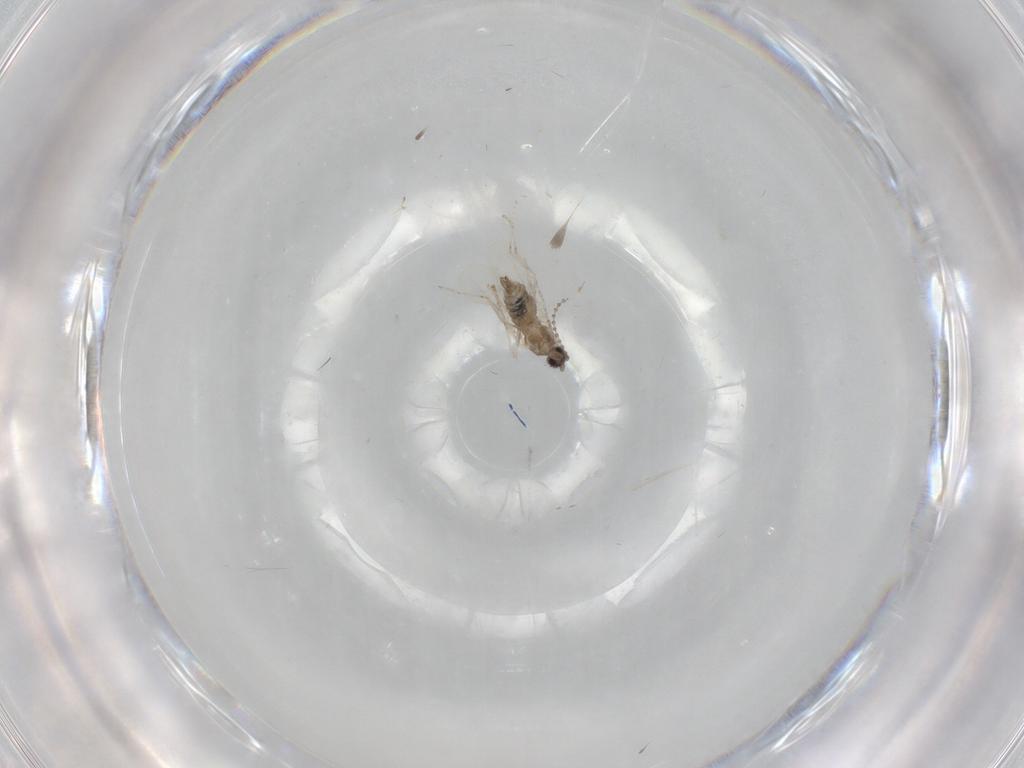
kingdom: Animalia
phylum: Arthropoda
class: Insecta
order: Diptera
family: Cecidomyiidae
